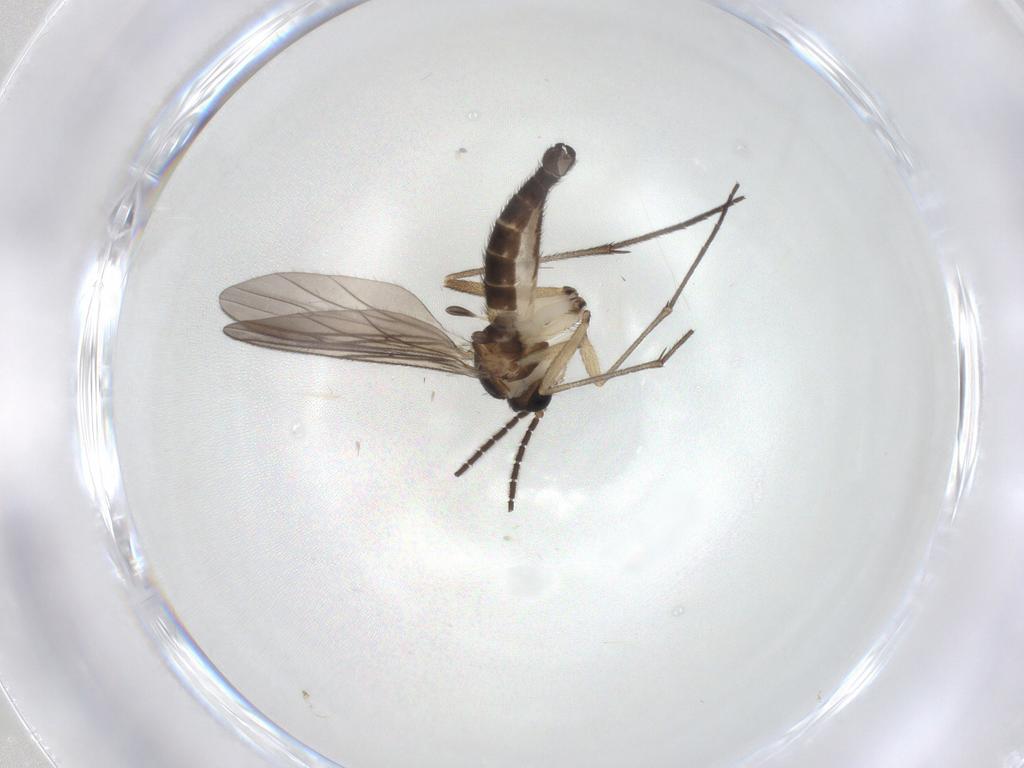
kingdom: Animalia
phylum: Arthropoda
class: Insecta
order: Diptera
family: Sciaridae
